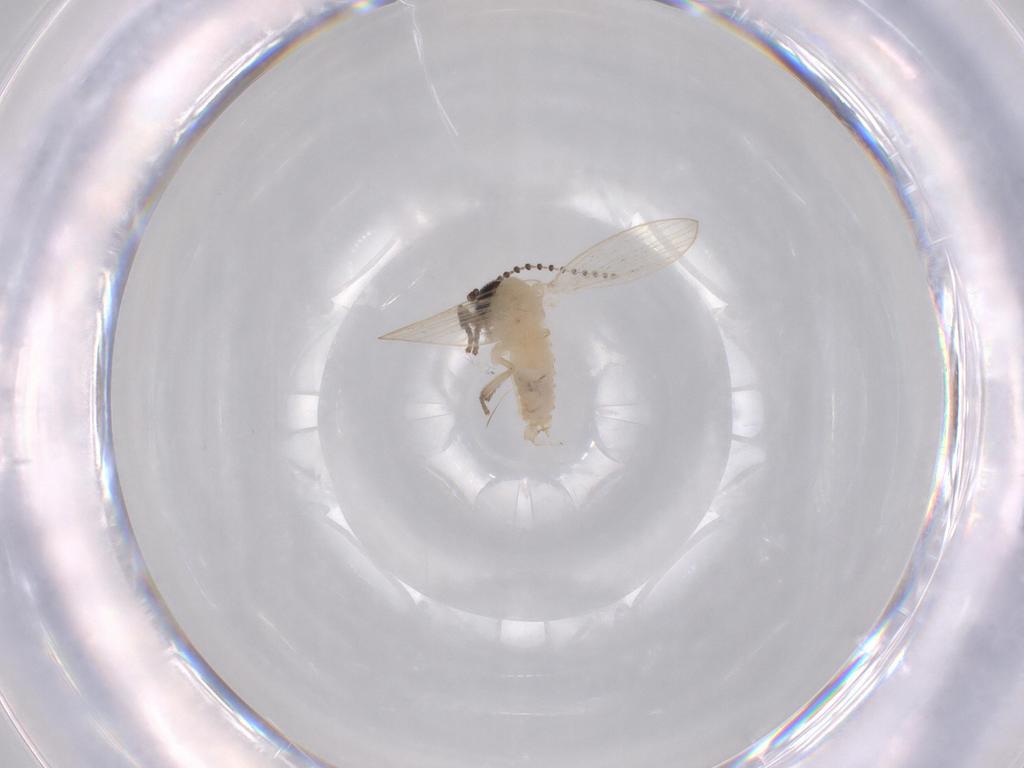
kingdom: Animalia
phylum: Arthropoda
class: Insecta
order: Diptera
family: Psychodidae
